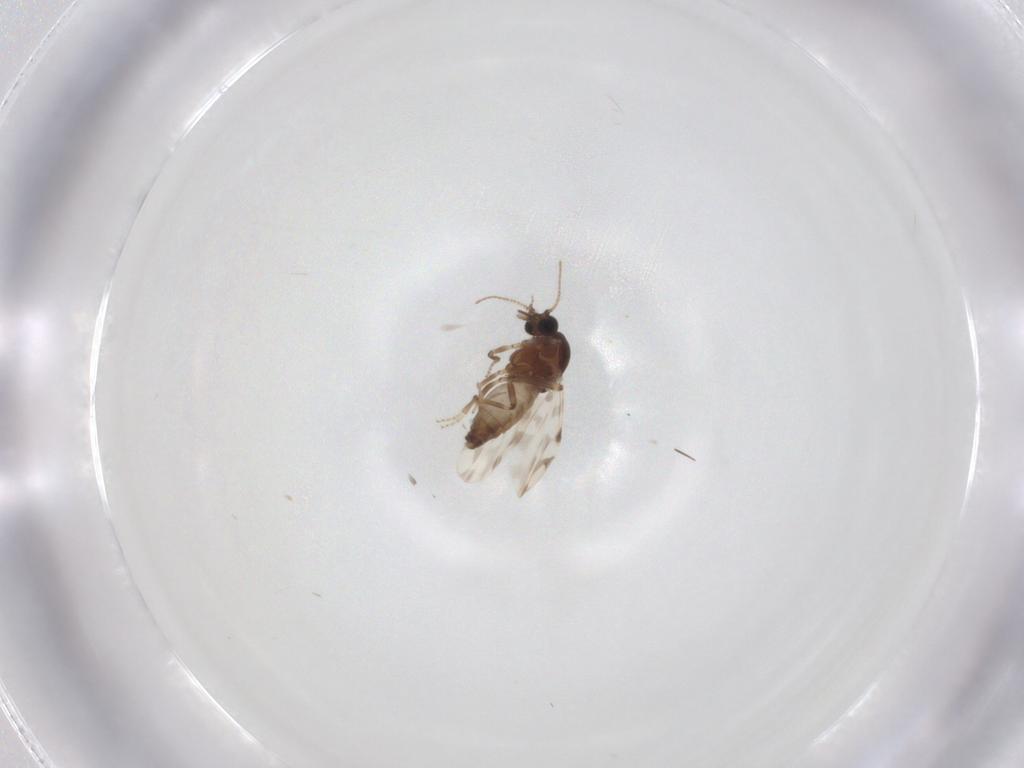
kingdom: Animalia
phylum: Arthropoda
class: Insecta
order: Diptera
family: Ceratopogonidae
